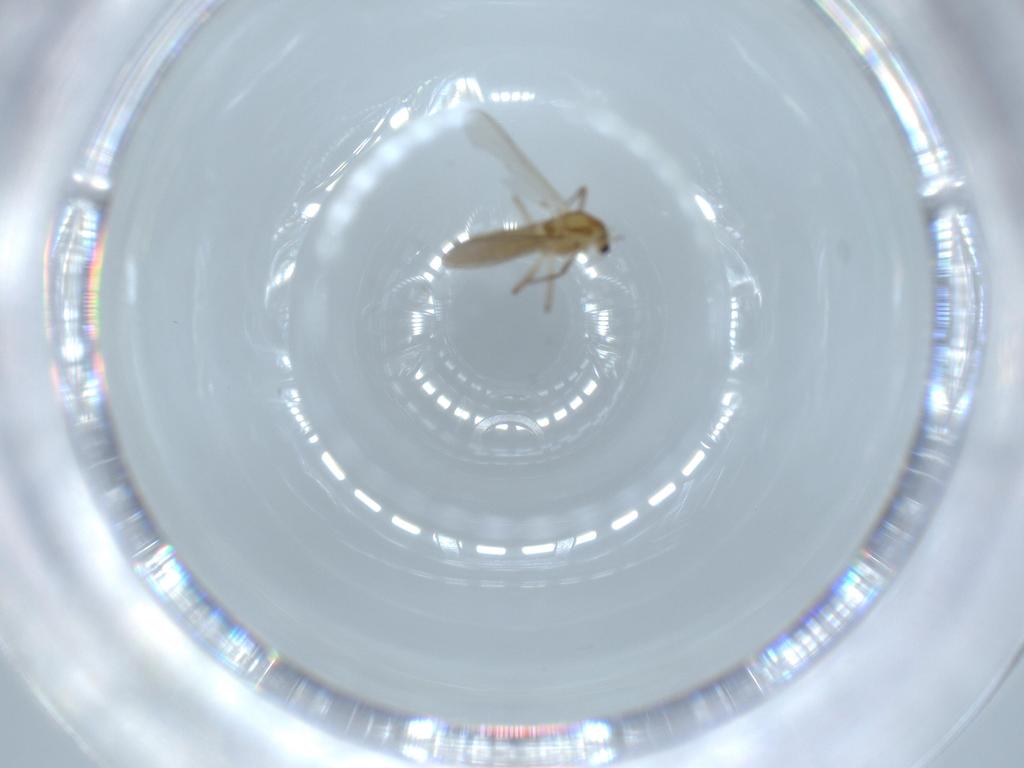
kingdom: Animalia
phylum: Arthropoda
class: Insecta
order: Diptera
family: Chironomidae
